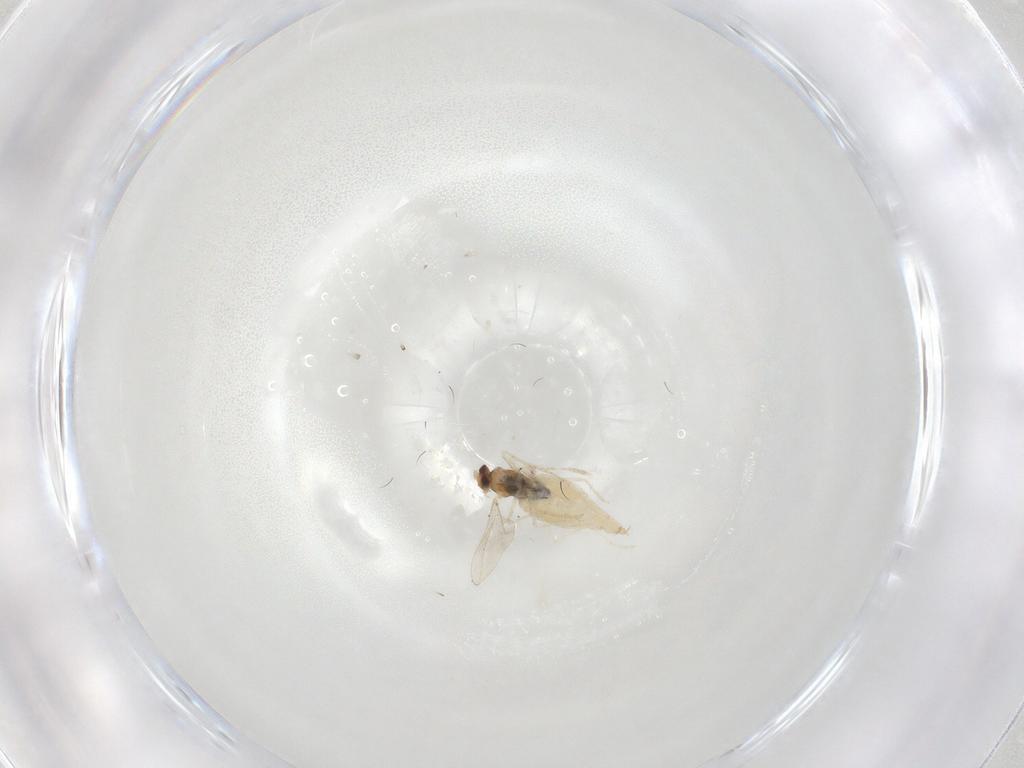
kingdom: Animalia
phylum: Arthropoda
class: Insecta
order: Diptera
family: Cecidomyiidae
